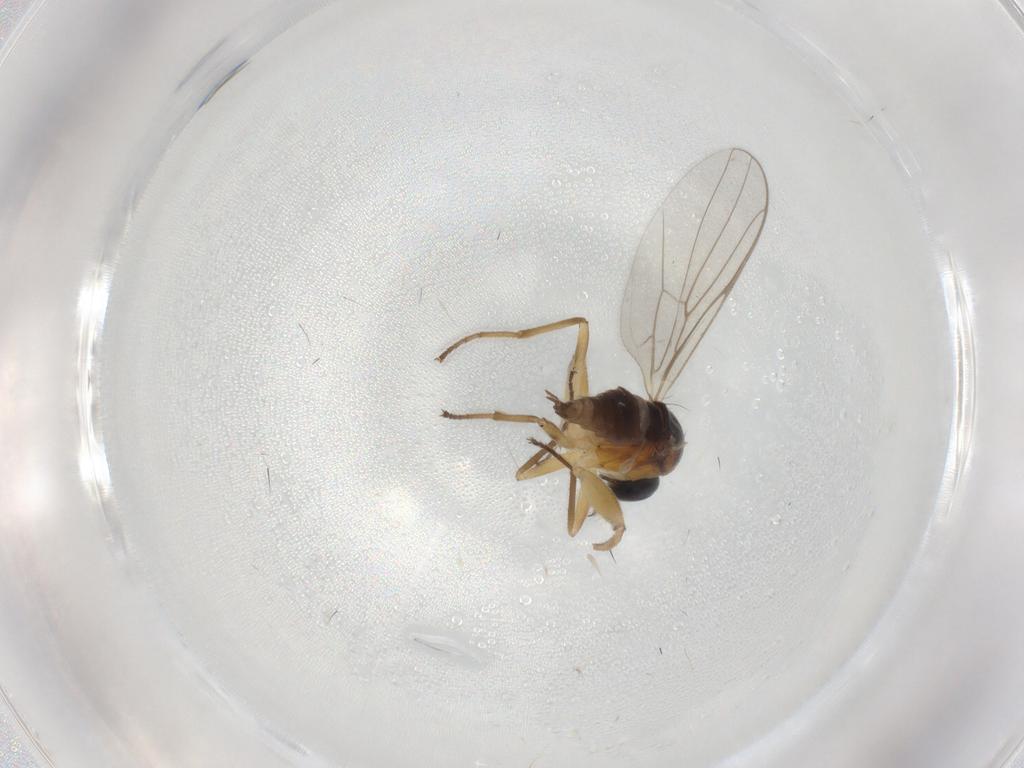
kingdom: Animalia
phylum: Arthropoda
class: Insecta
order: Diptera
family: Hybotidae
